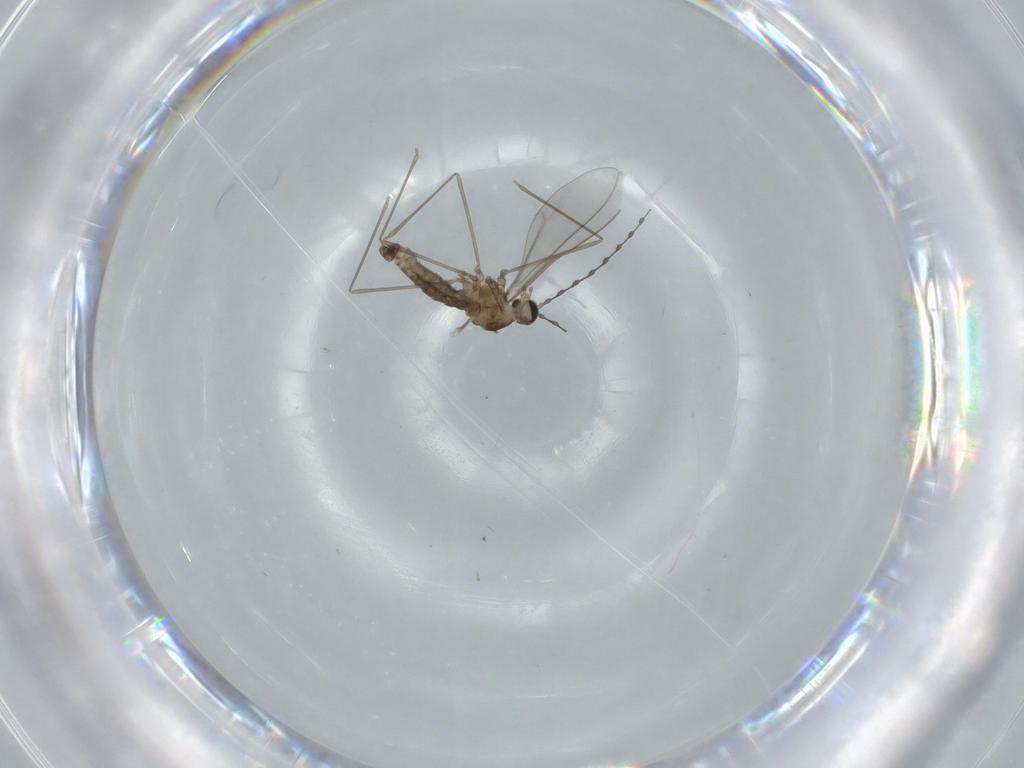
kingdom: Animalia
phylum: Arthropoda
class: Insecta
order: Diptera
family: Cecidomyiidae
